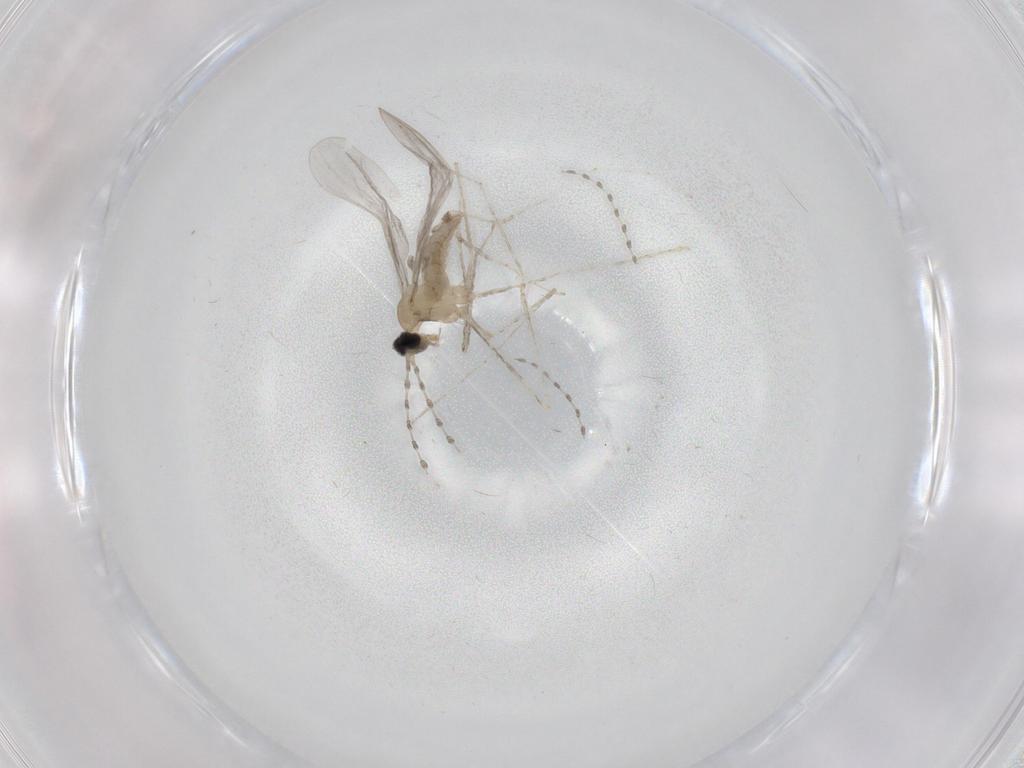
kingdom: Animalia
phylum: Arthropoda
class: Insecta
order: Diptera
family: Cecidomyiidae
